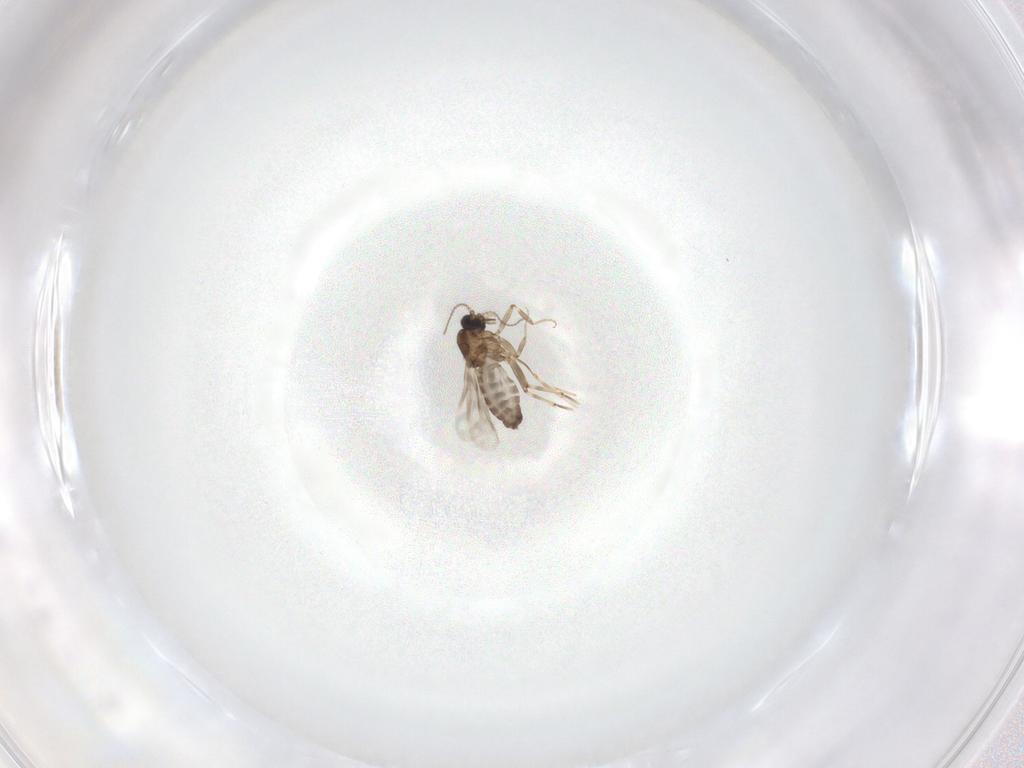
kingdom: Animalia
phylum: Arthropoda
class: Insecta
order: Diptera
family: Ceratopogonidae
